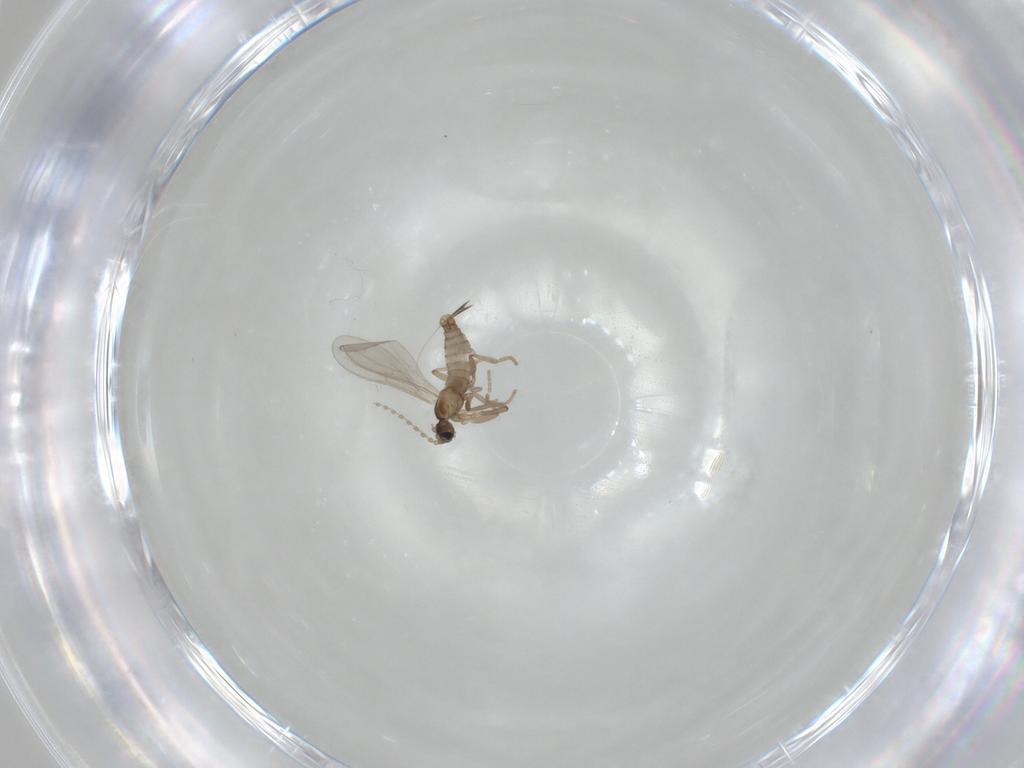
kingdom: Animalia
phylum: Arthropoda
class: Insecta
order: Diptera
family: Cecidomyiidae
